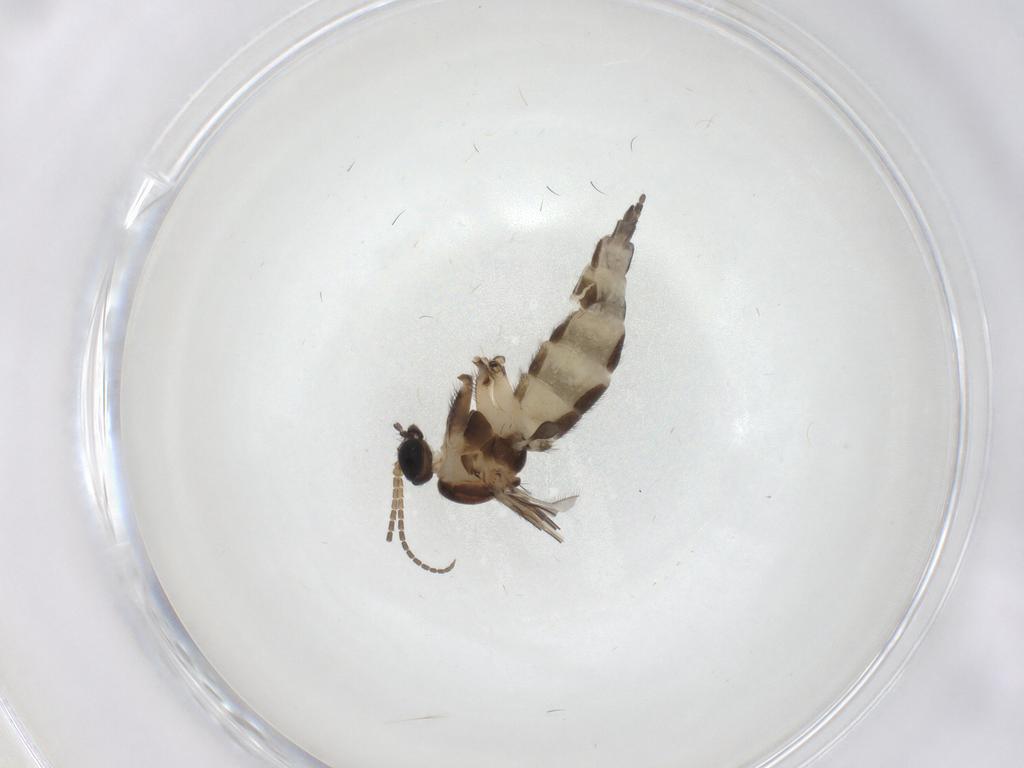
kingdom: Animalia
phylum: Arthropoda
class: Insecta
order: Diptera
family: Sciaridae
